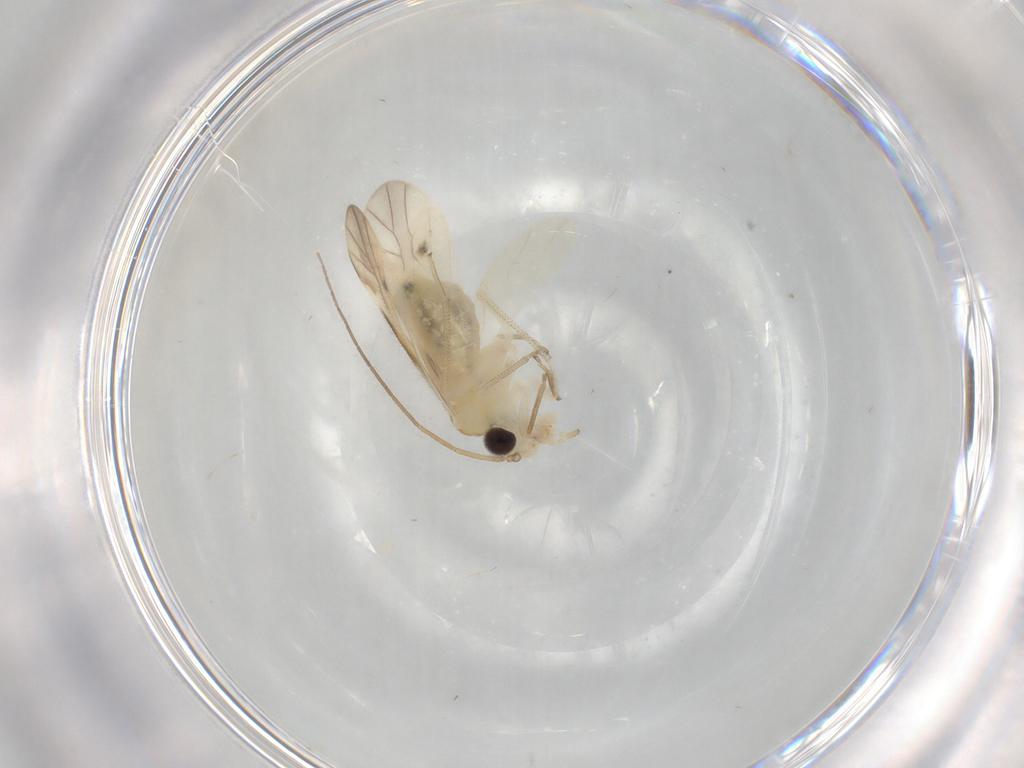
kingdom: Animalia
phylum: Arthropoda
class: Insecta
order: Psocodea
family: Caeciliusidae
